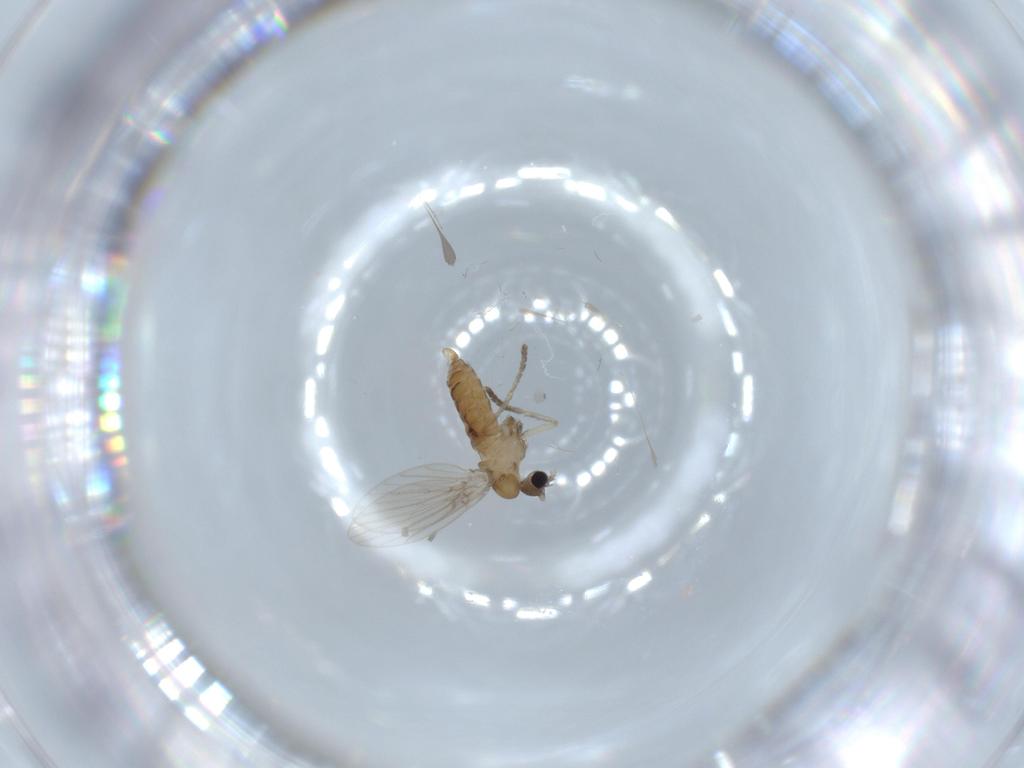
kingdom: Animalia
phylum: Arthropoda
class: Insecta
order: Diptera
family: Psychodidae
